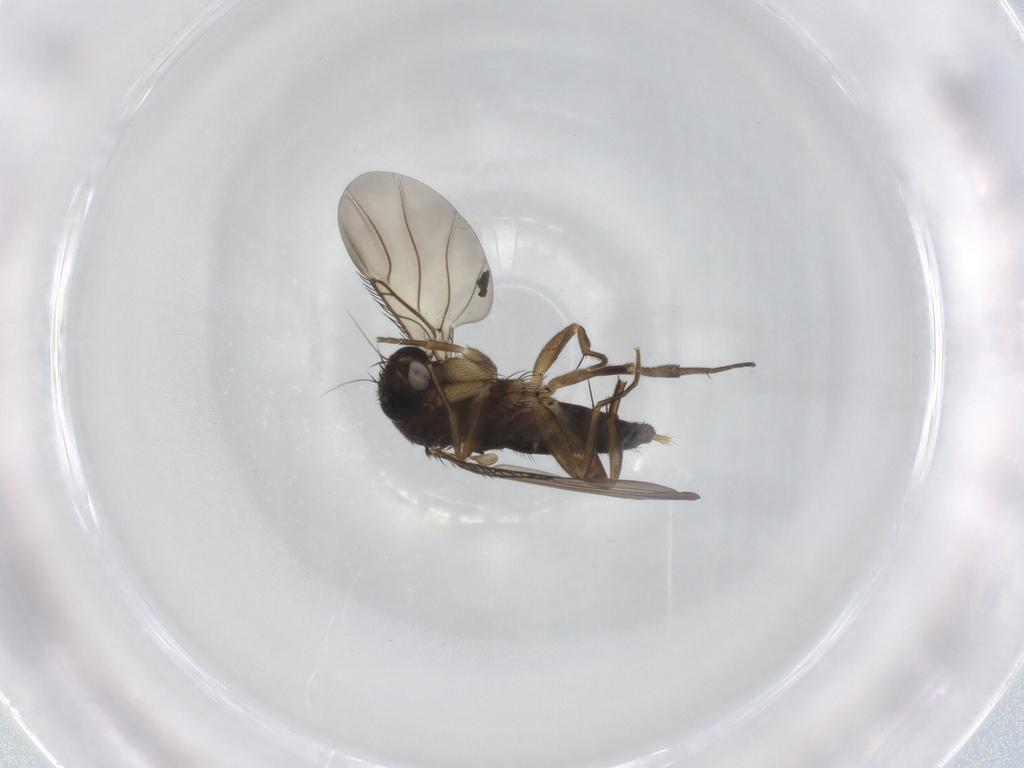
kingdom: Animalia
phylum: Arthropoda
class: Insecta
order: Diptera
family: Phoridae
